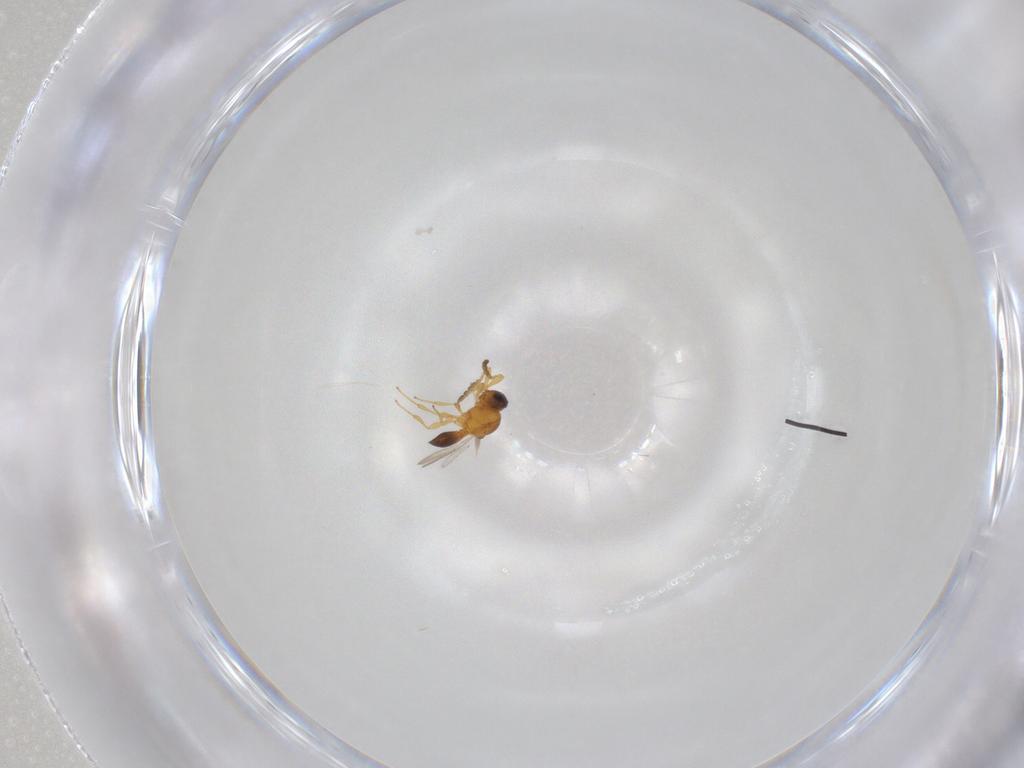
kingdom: Animalia
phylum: Arthropoda
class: Insecta
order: Hymenoptera
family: Platygastridae
